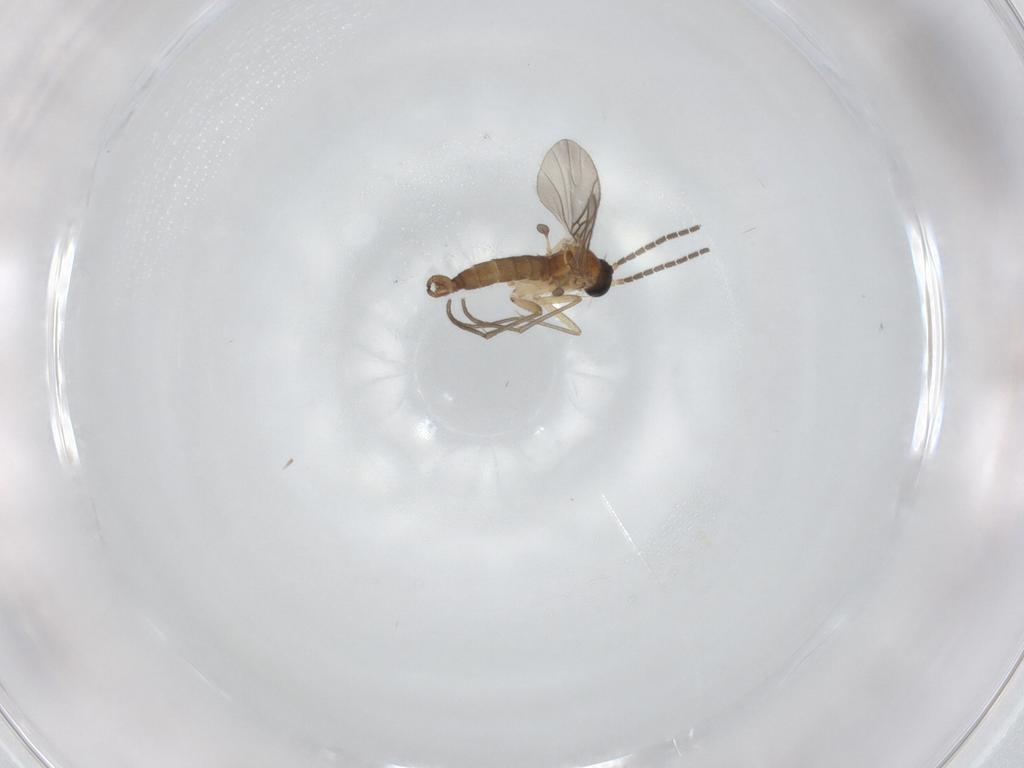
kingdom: Animalia
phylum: Arthropoda
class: Insecta
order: Diptera
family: Sciaridae
